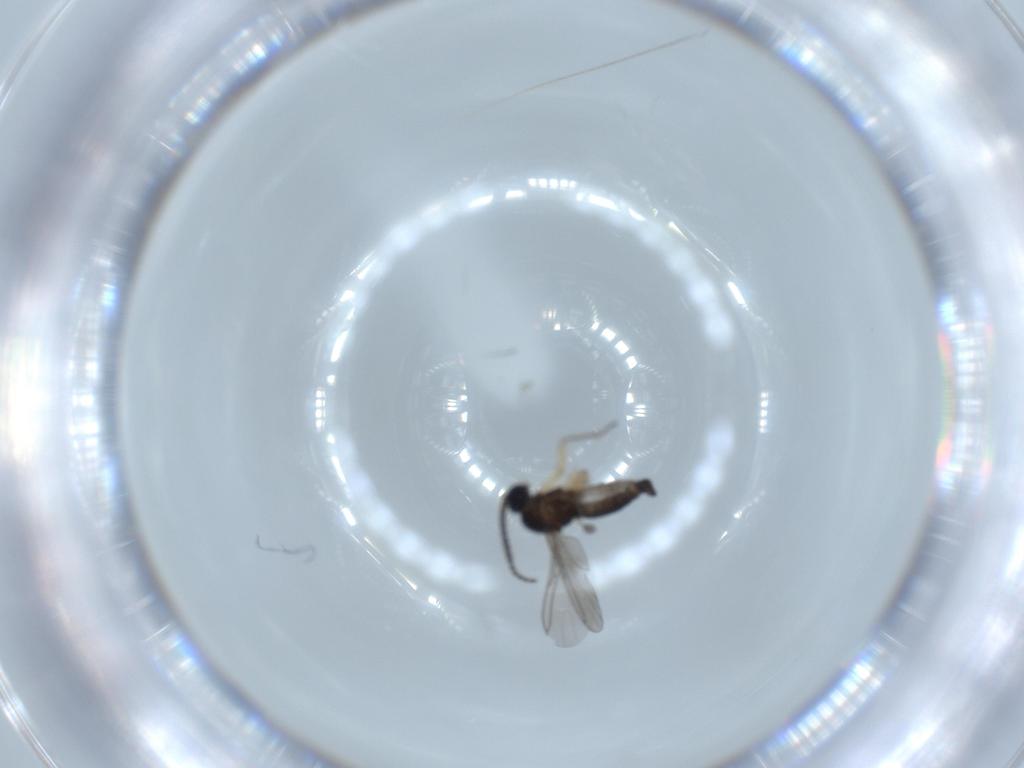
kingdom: Animalia
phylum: Arthropoda
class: Insecta
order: Diptera
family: Sciaridae
